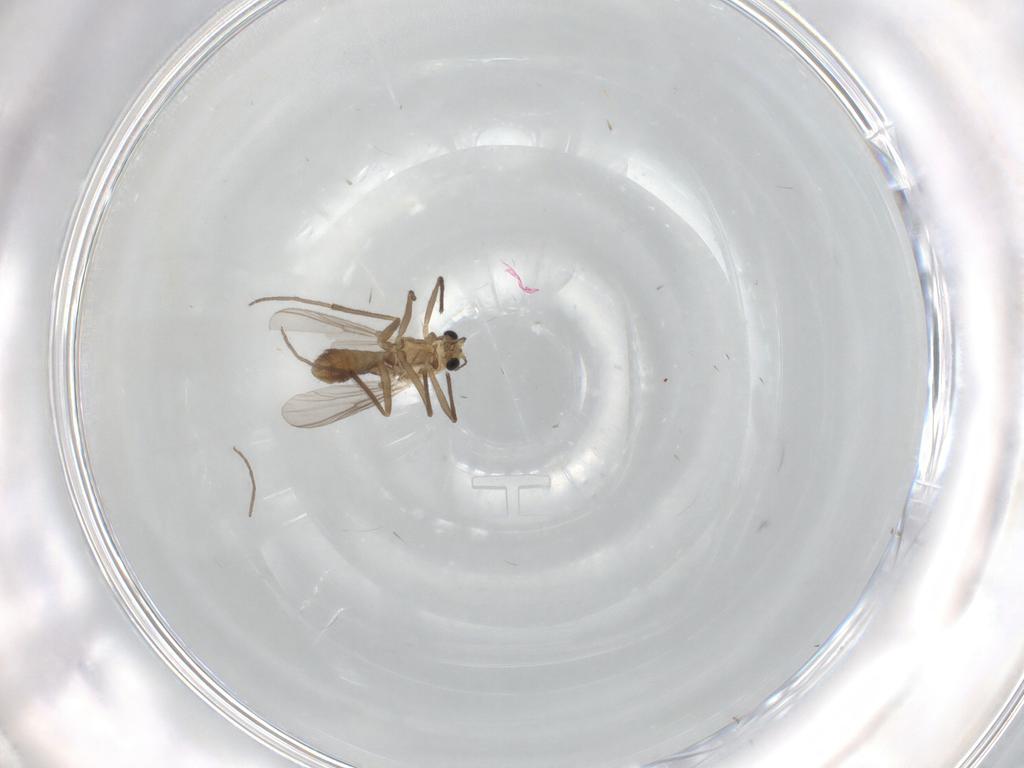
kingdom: Animalia
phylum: Arthropoda
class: Insecta
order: Diptera
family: Chironomidae
